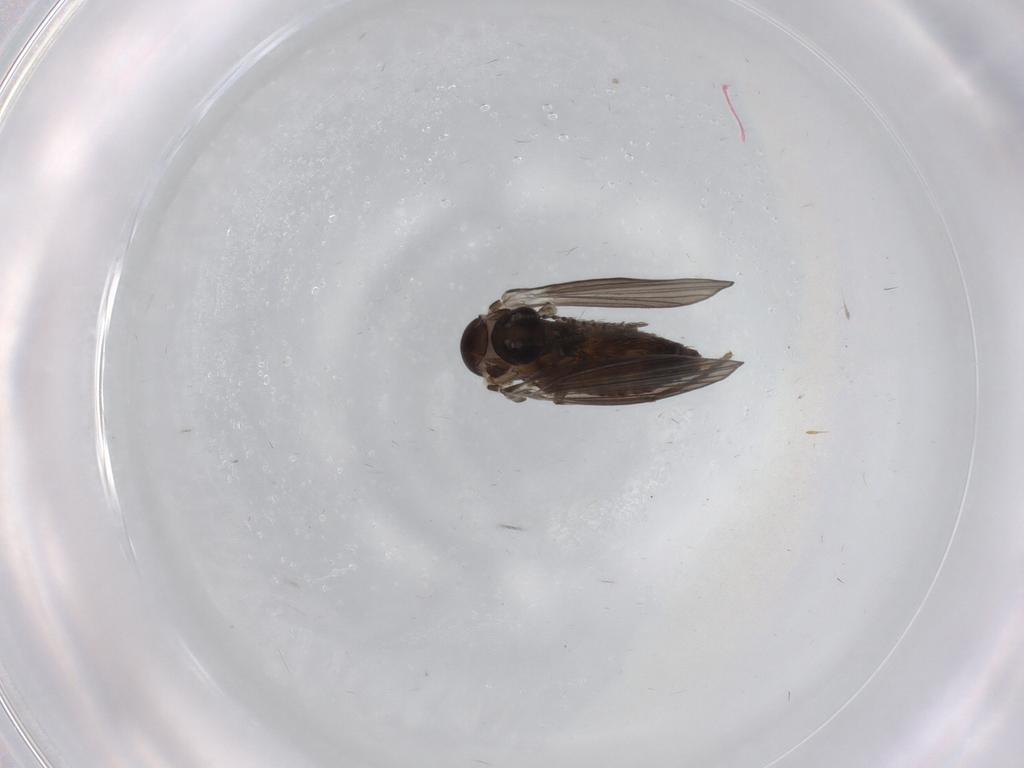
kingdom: Animalia
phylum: Arthropoda
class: Insecta
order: Diptera
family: Psychodidae
